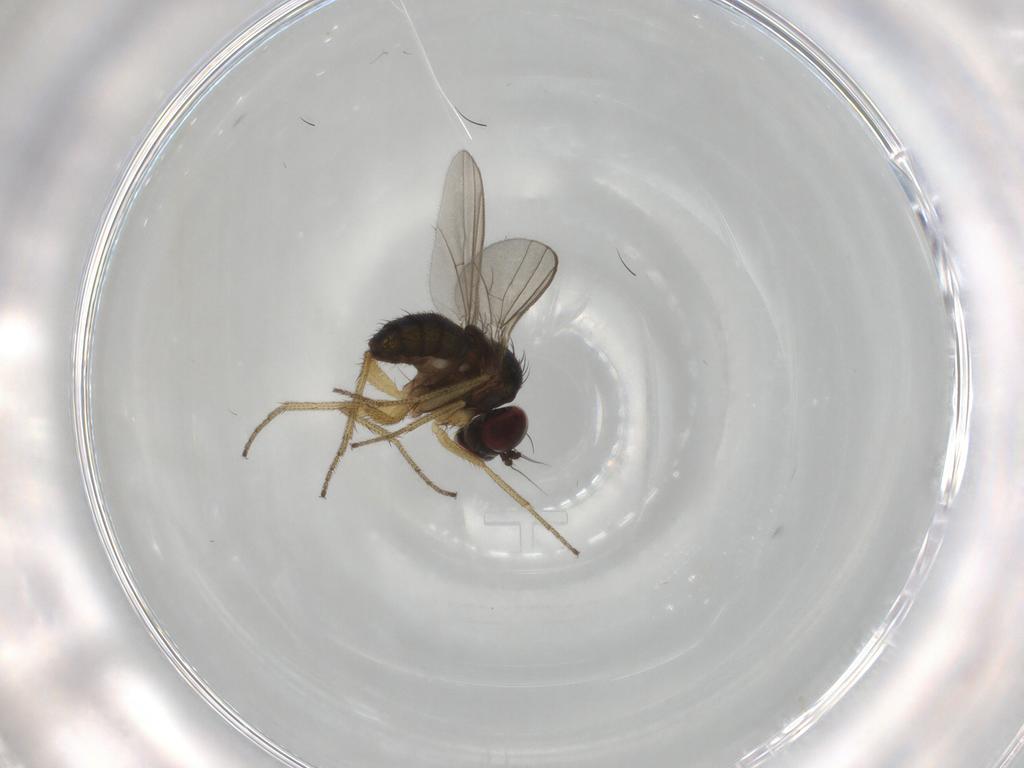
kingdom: Animalia
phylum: Arthropoda
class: Insecta
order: Diptera
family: Dolichopodidae
